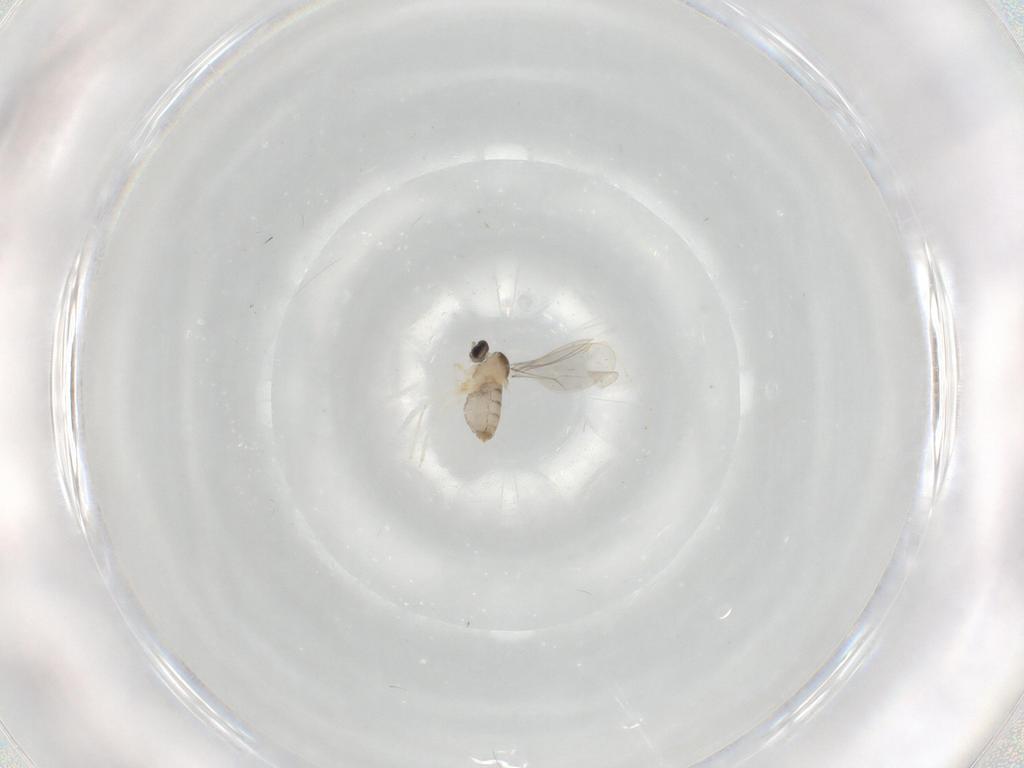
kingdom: Animalia
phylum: Arthropoda
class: Insecta
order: Diptera
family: Cecidomyiidae
